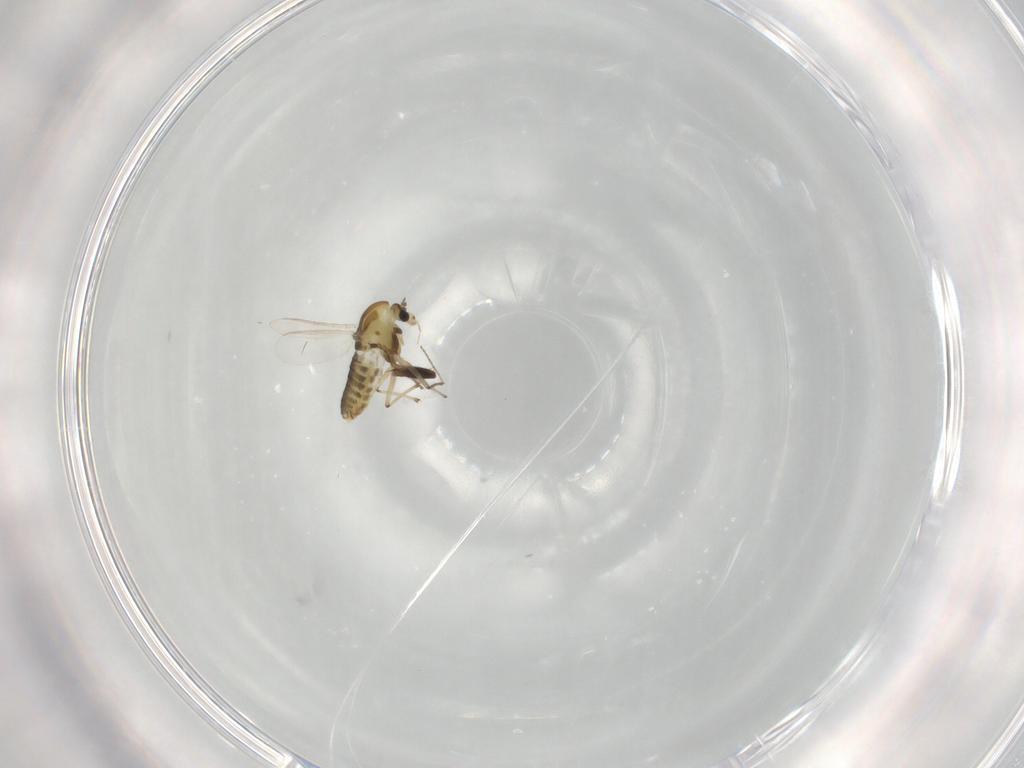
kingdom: Animalia
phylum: Arthropoda
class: Insecta
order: Diptera
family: Chironomidae
